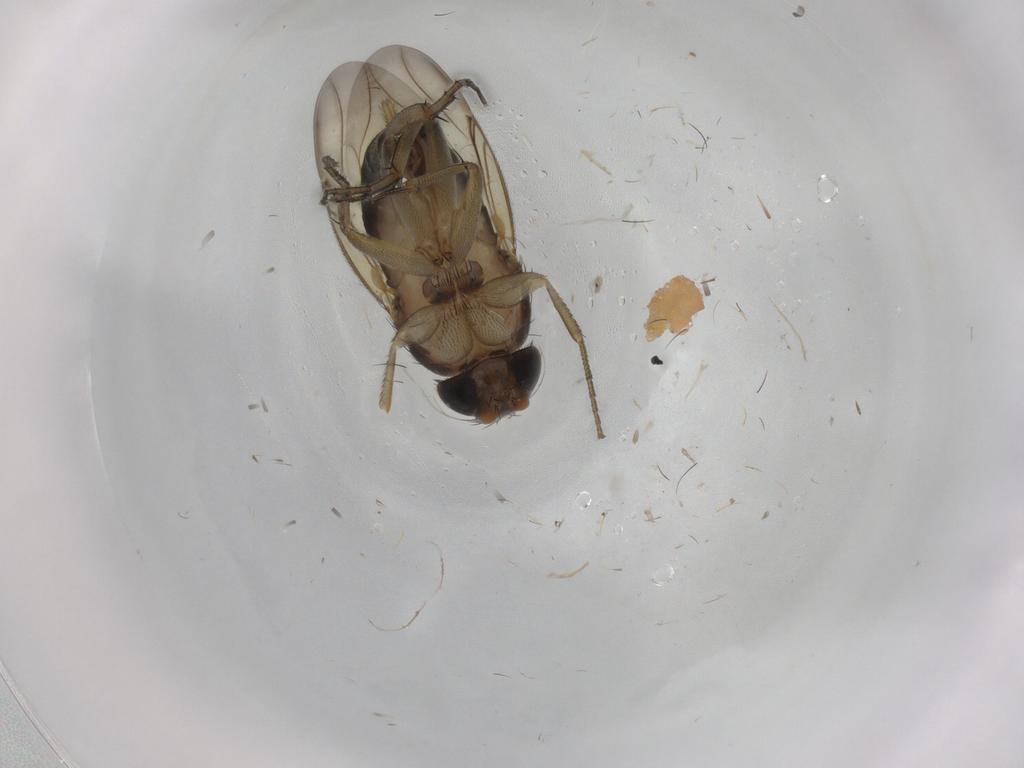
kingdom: Animalia
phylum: Arthropoda
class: Insecta
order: Diptera
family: Phoridae
